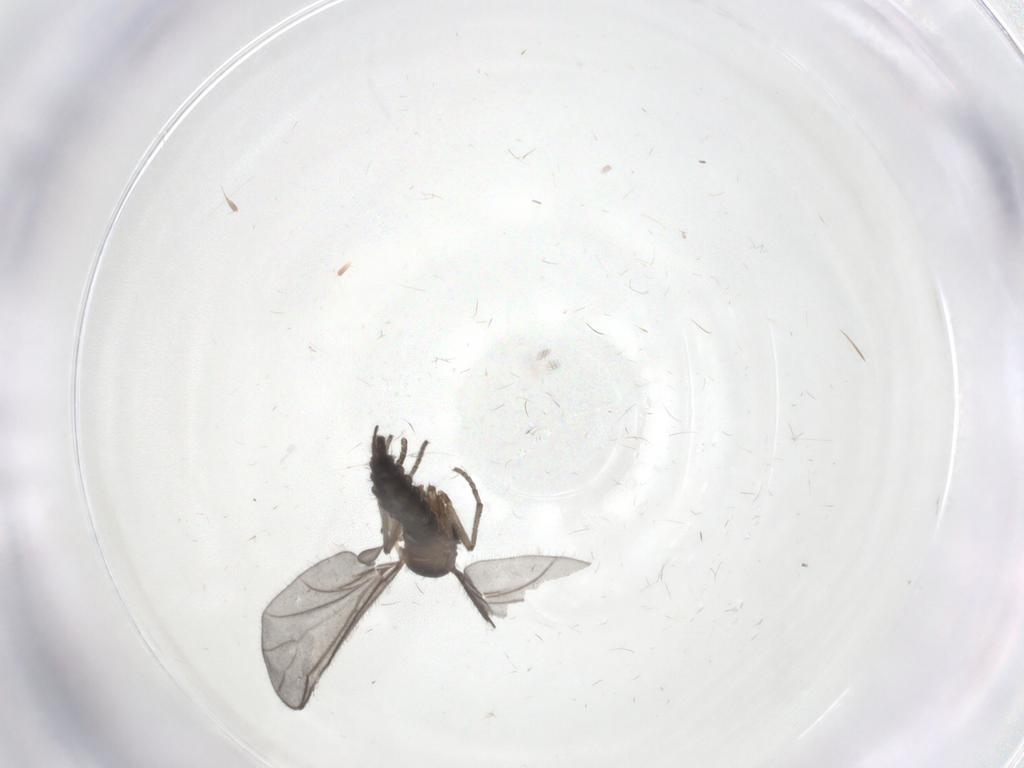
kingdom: Animalia
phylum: Arthropoda
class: Insecta
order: Diptera
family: Sciaridae
